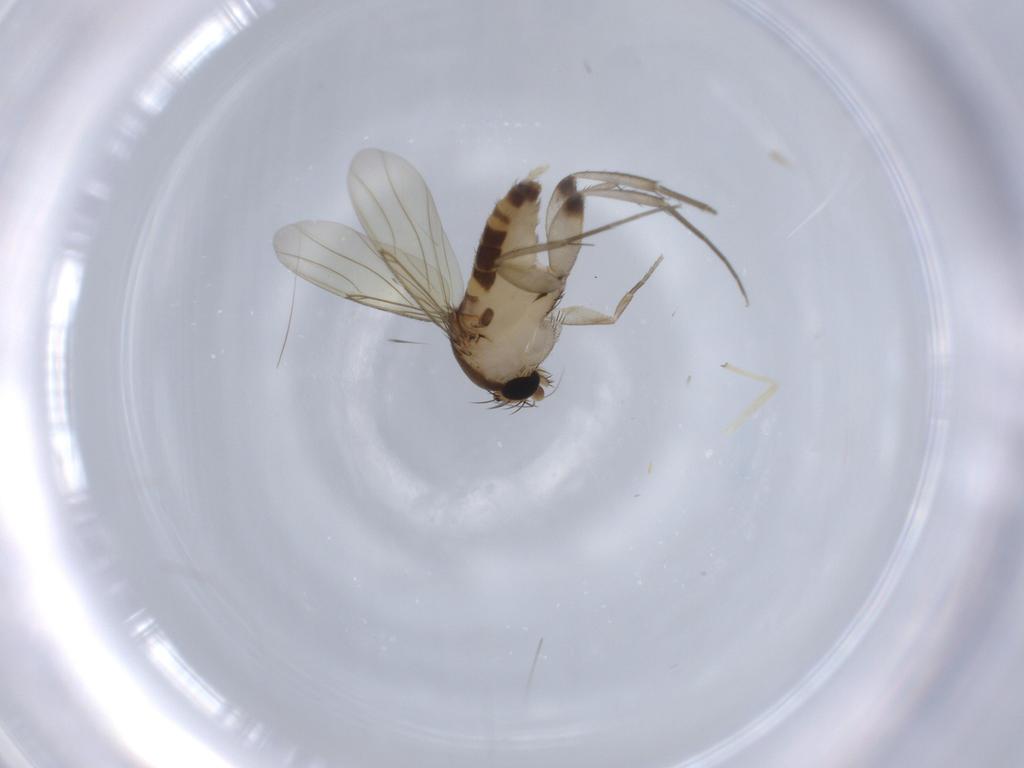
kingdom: Animalia
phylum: Arthropoda
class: Insecta
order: Diptera
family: Phoridae
